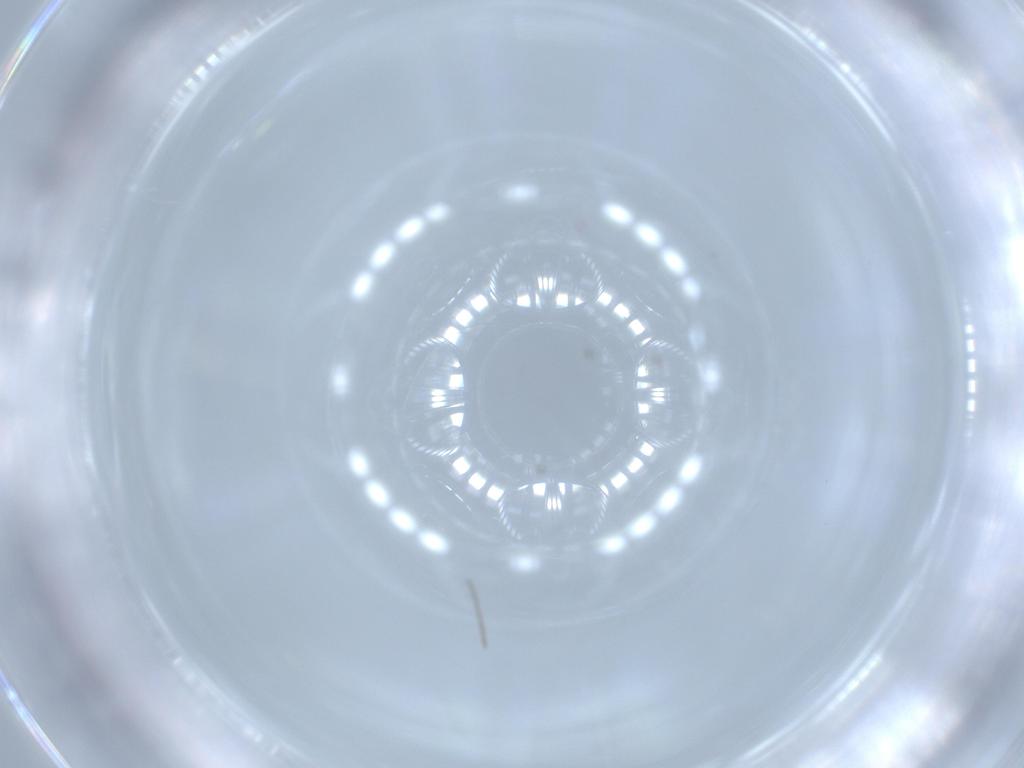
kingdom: Animalia
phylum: Arthropoda
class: Insecta
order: Diptera
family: Chironomidae
